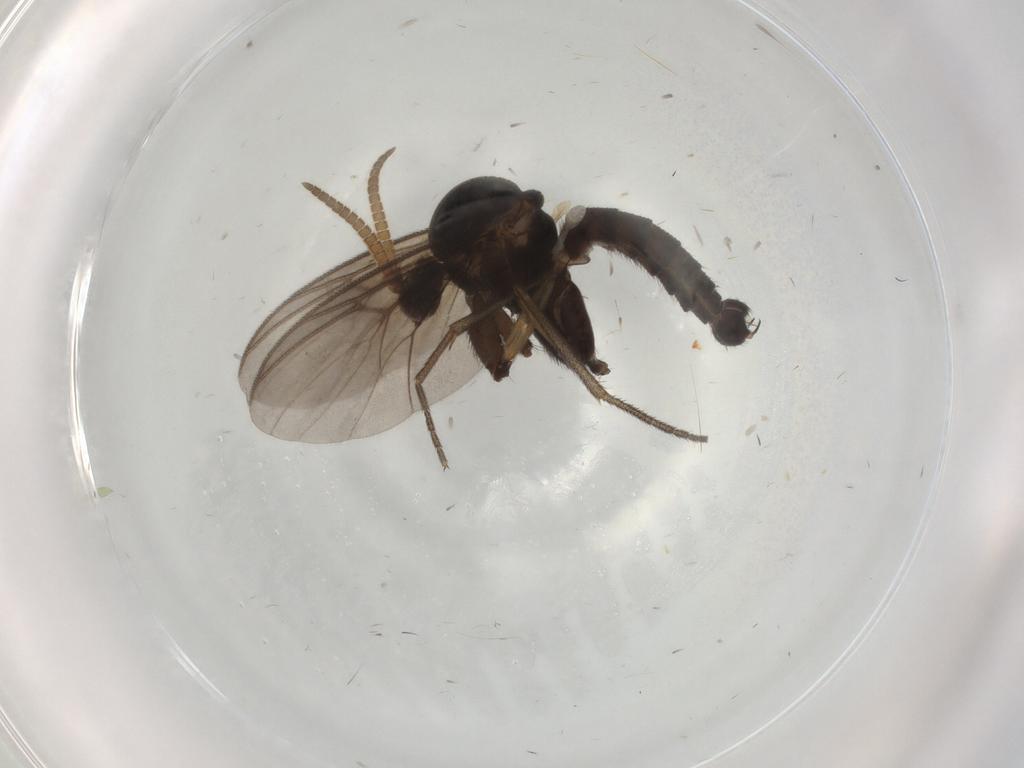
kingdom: Animalia
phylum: Arthropoda
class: Insecta
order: Diptera
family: Mycetophilidae
